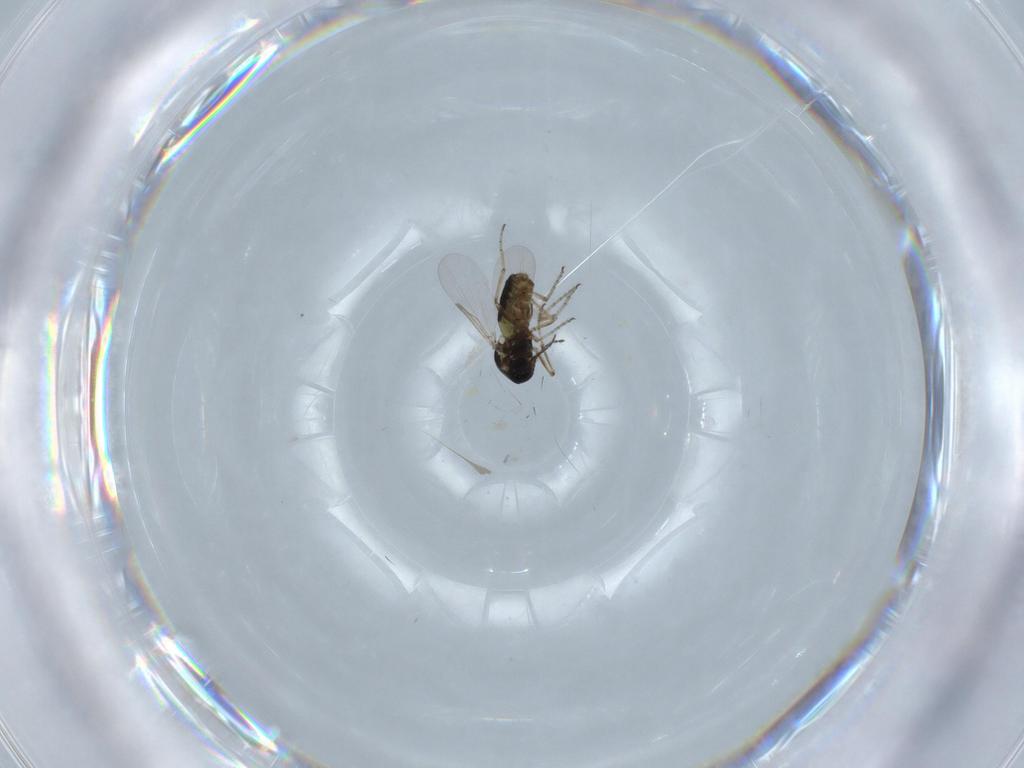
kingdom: Animalia
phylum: Arthropoda
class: Insecta
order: Diptera
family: Ceratopogonidae
